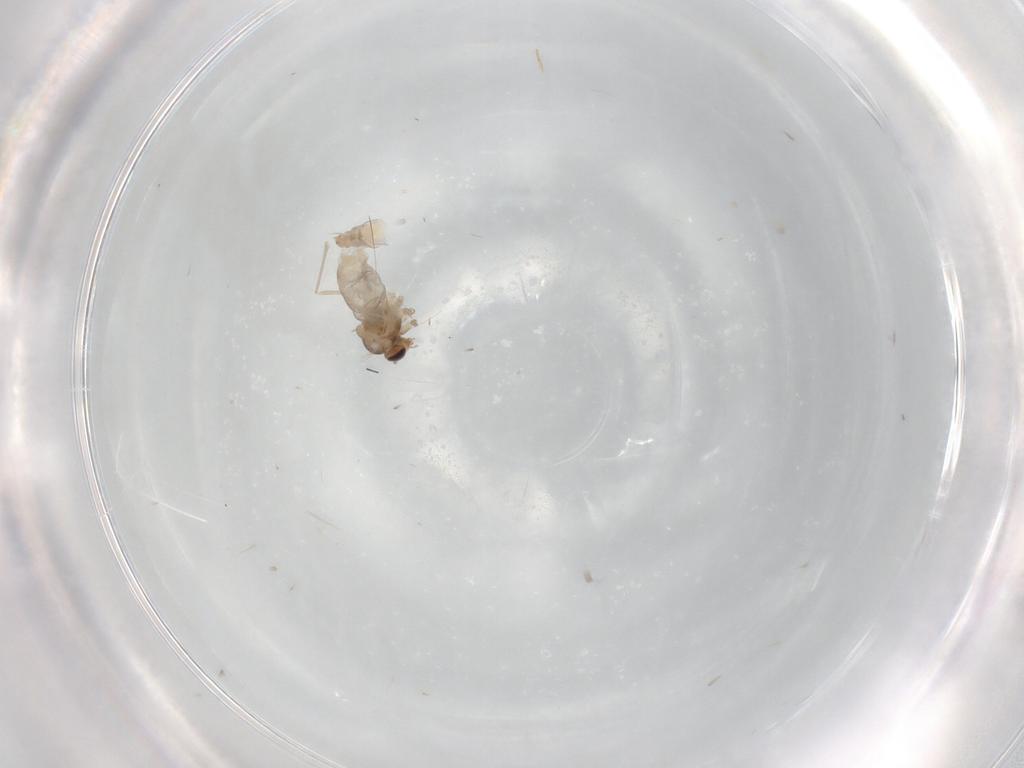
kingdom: Animalia
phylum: Arthropoda
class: Insecta
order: Diptera
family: Cecidomyiidae
